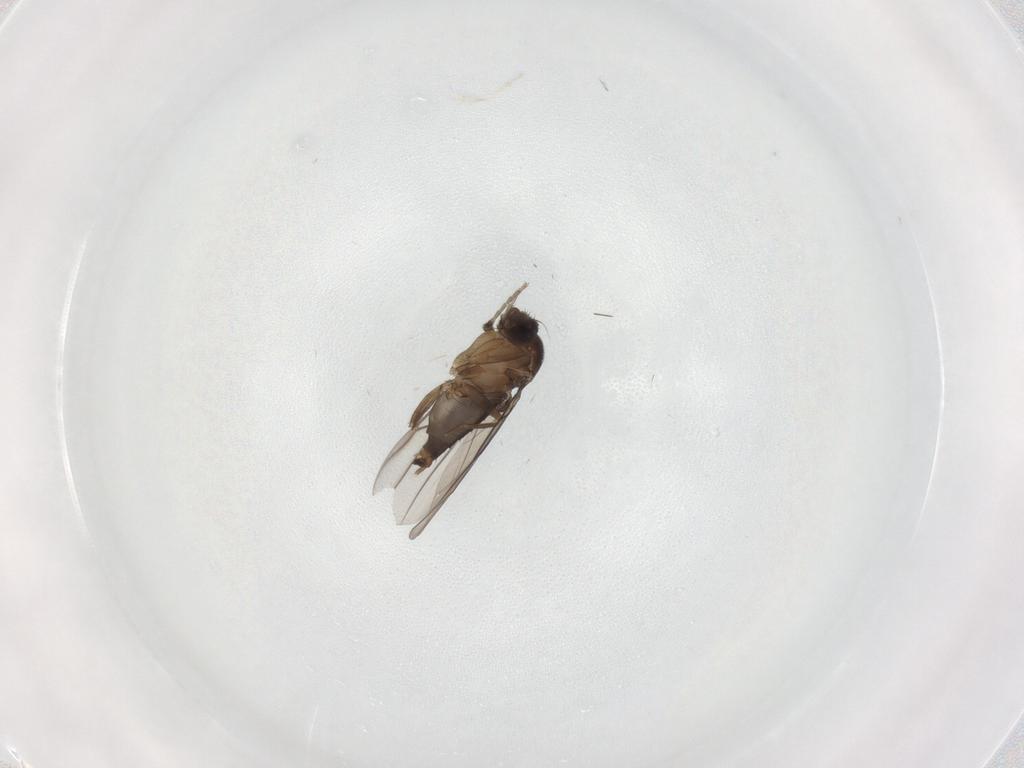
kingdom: Animalia
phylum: Arthropoda
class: Insecta
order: Diptera
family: Phoridae
